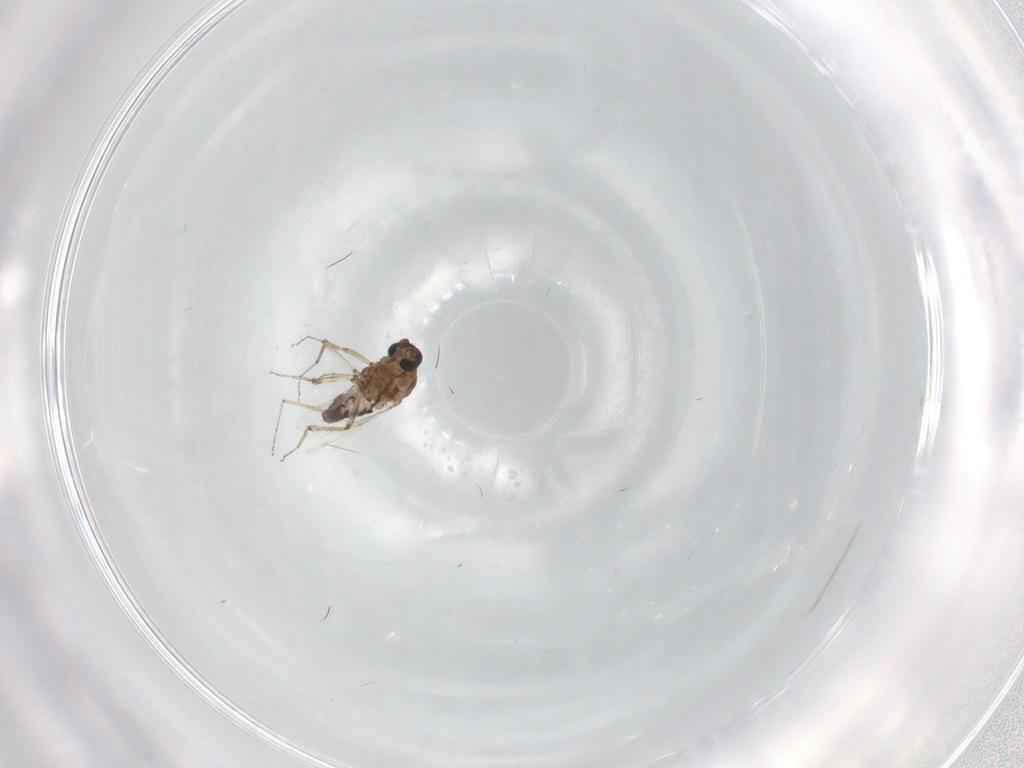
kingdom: Animalia
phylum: Arthropoda
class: Insecta
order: Diptera
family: Ceratopogonidae
